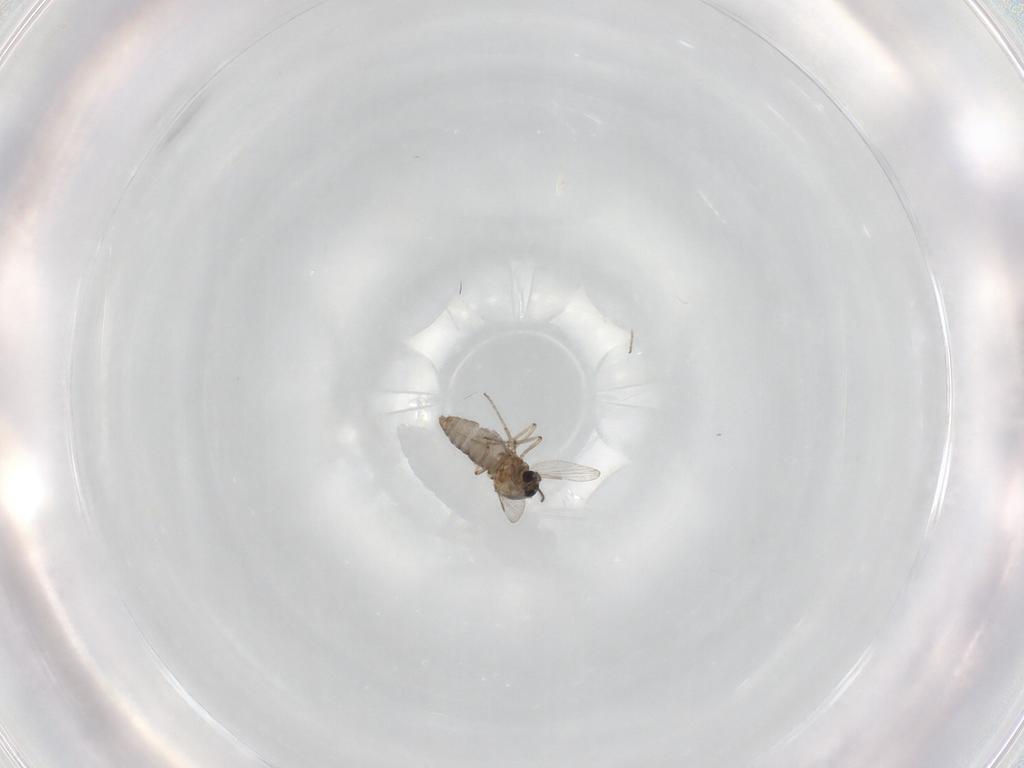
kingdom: Animalia
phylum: Arthropoda
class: Insecta
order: Diptera
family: Ceratopogonidae
